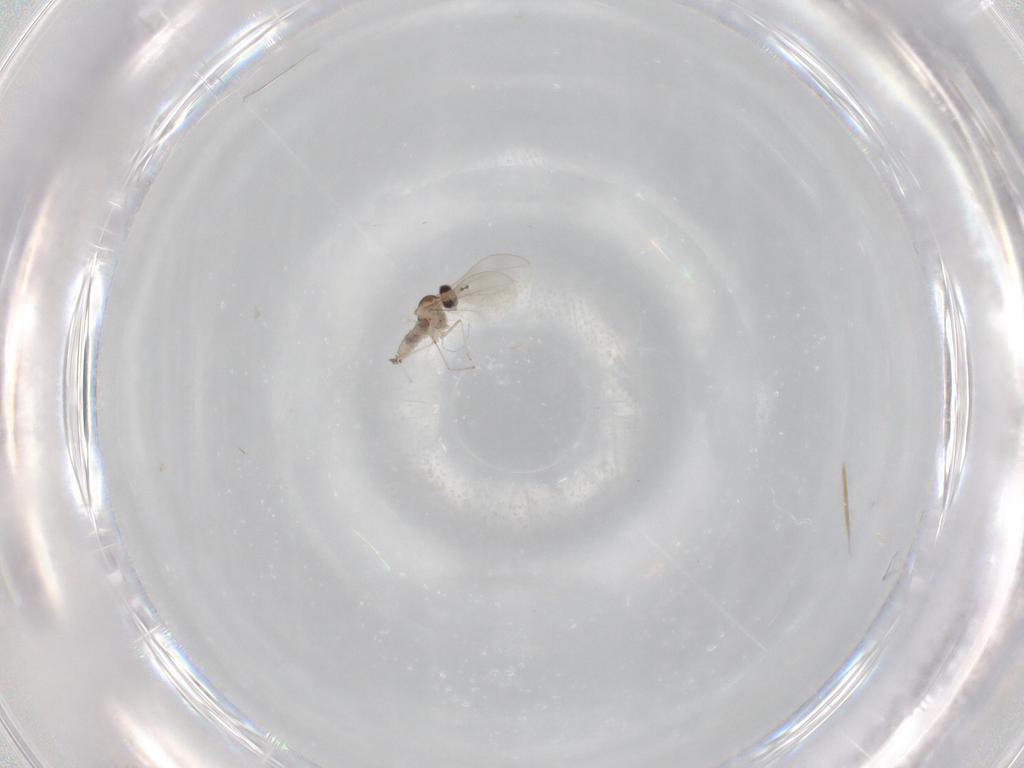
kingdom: Animalia
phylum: Arthropoda
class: Insecta
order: Diptera
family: Cecidomyiidae
